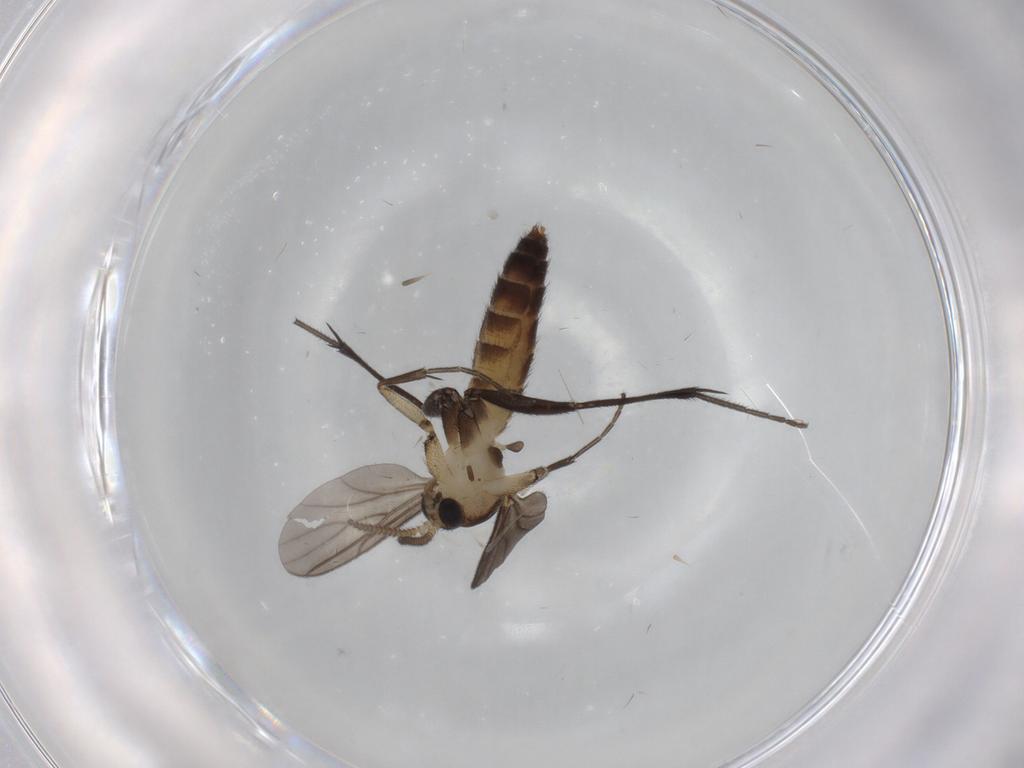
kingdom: Animalia
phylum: Arthropoda
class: Insecta
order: Diptera
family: Mycetophilidae
